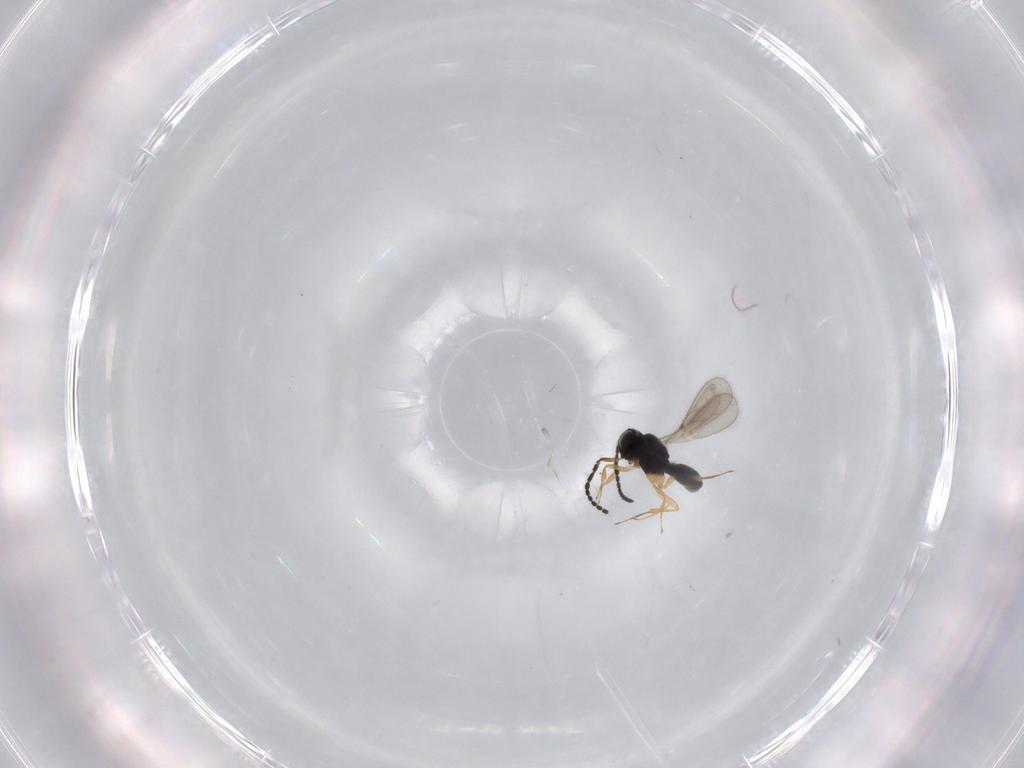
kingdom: Animalia
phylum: Arthropoda
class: Insecta
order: Hymenoptera
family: Scelionidae
